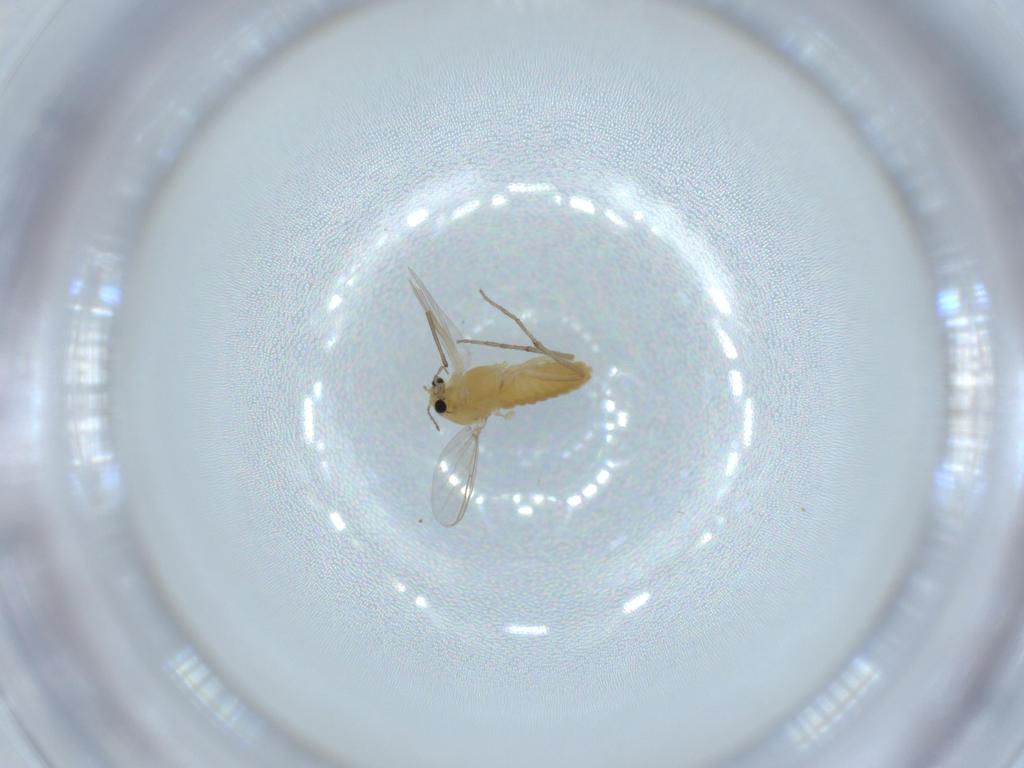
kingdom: Animalia
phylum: Arthropoda
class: Insecta
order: Diptera
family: Chironomidae
